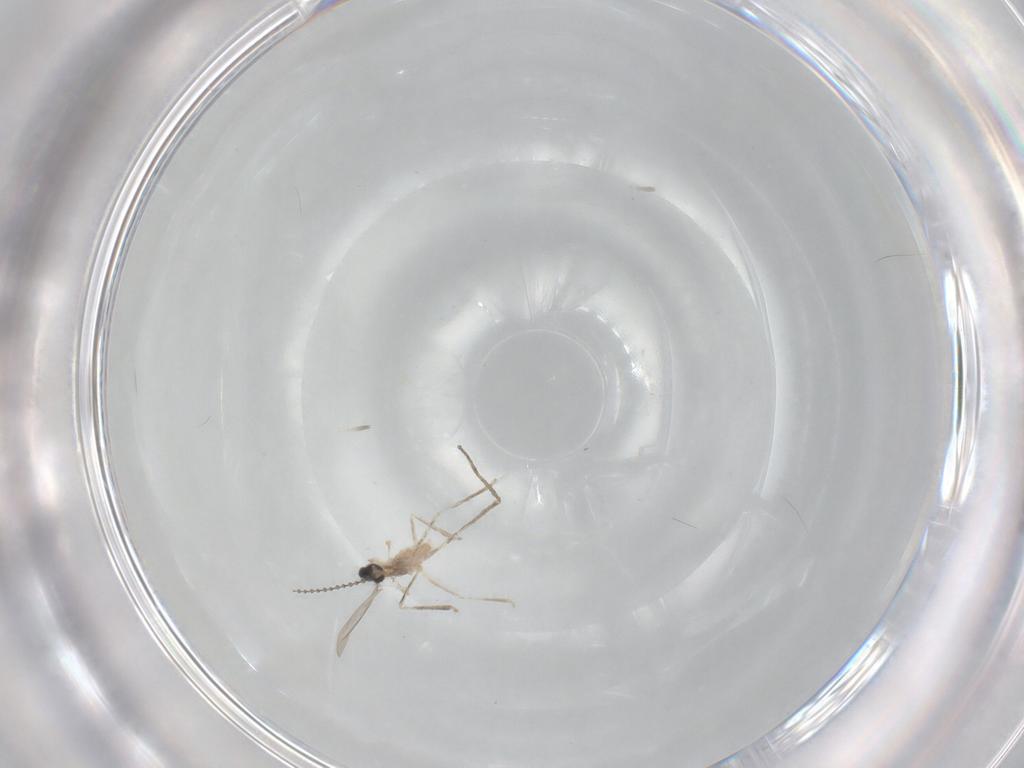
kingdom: Animalia
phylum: Arthropoda
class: Insecta
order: Diptera
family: Cecidomyiidae
